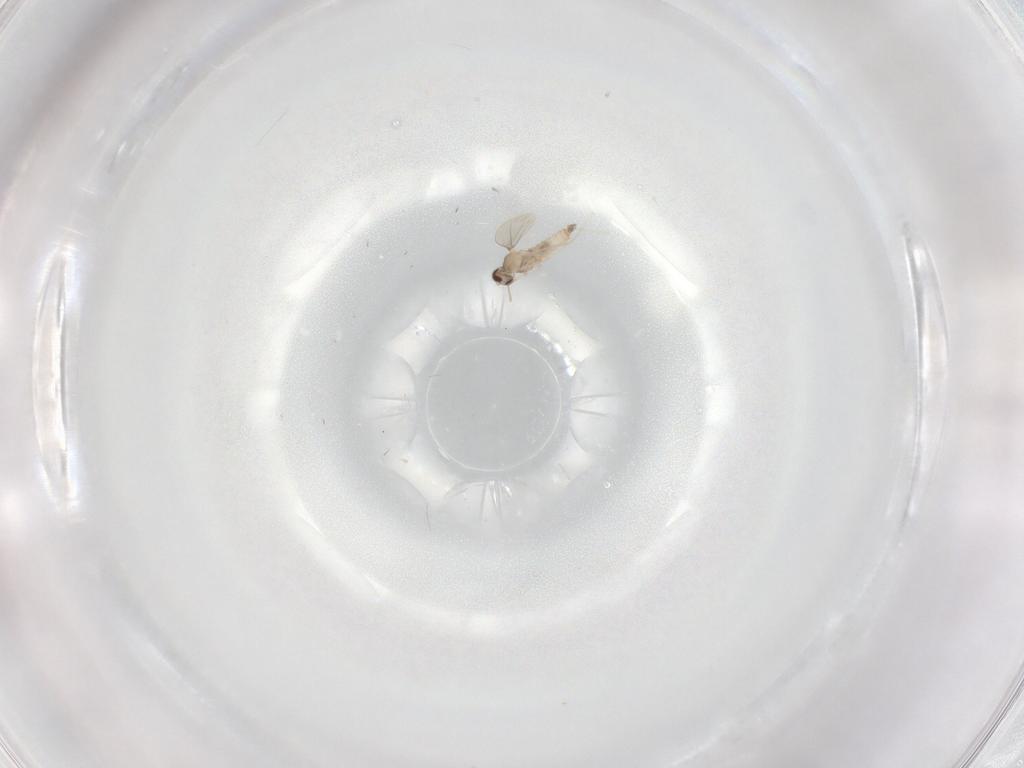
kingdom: Animalia
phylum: Arthropoda
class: Insecta
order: Diptera
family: Cecidomyiidae
